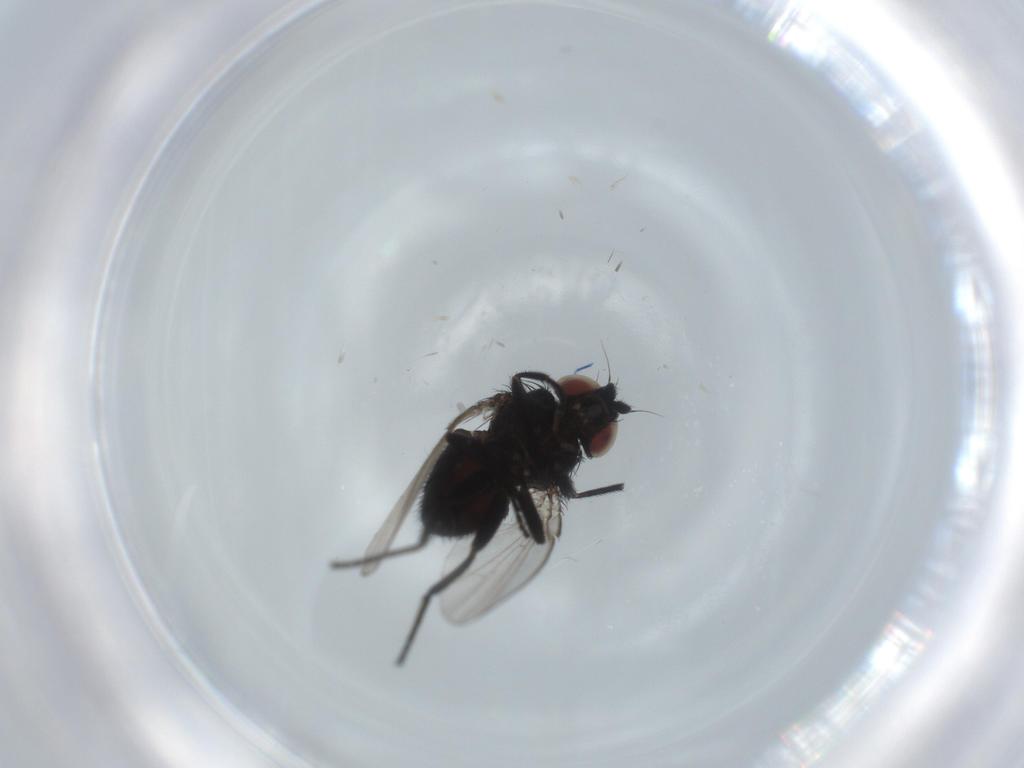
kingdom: Animalia
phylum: Arthropoda
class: Insecta
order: Diptera
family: Sciaridae
